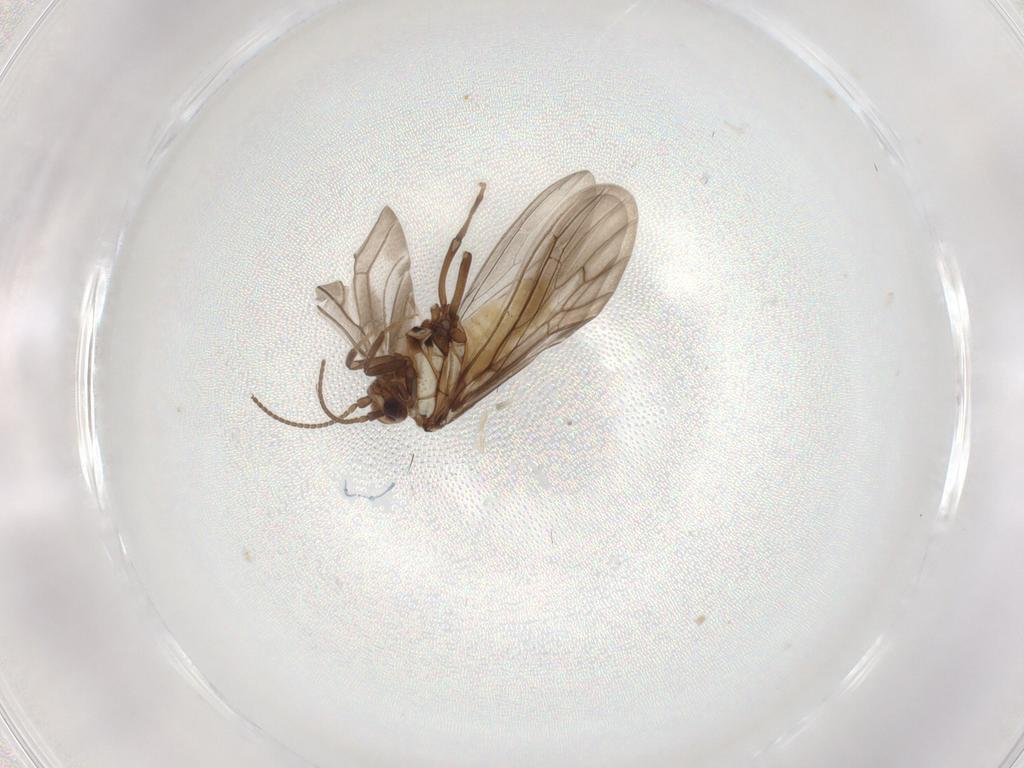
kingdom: Animalia
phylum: Arthropoda
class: Insecta
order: Neuroptera
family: Coniopterygidae
